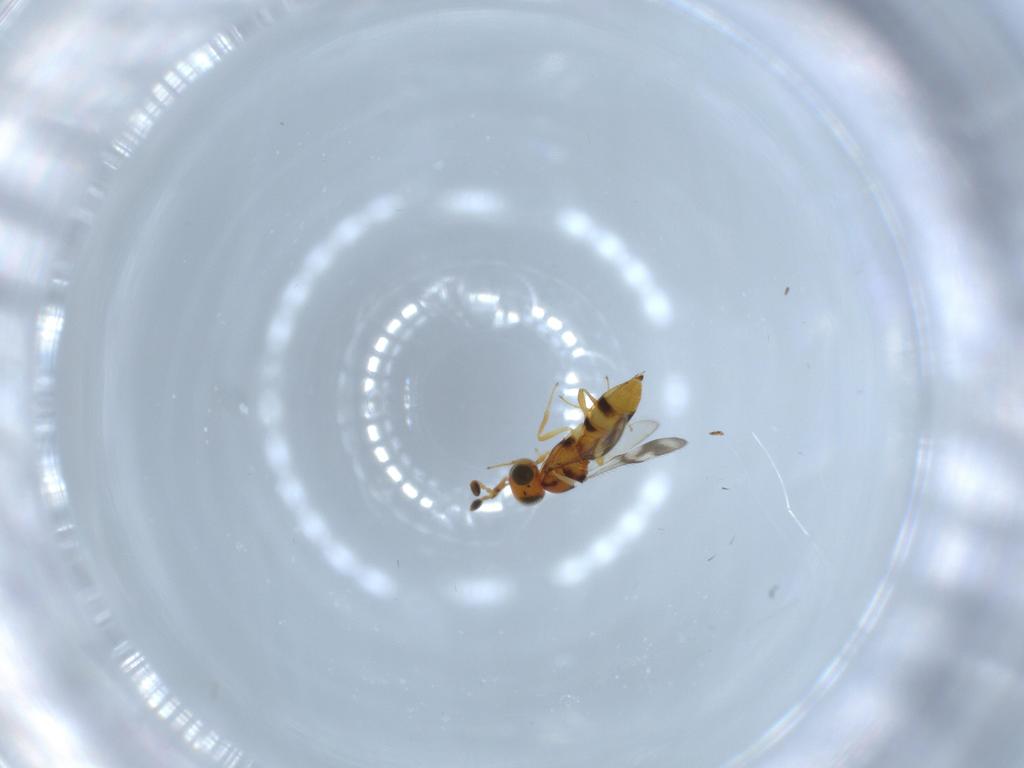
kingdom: Animalia
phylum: Arthropoda
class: Insecta
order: Hymenoptera
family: Scelionidae
